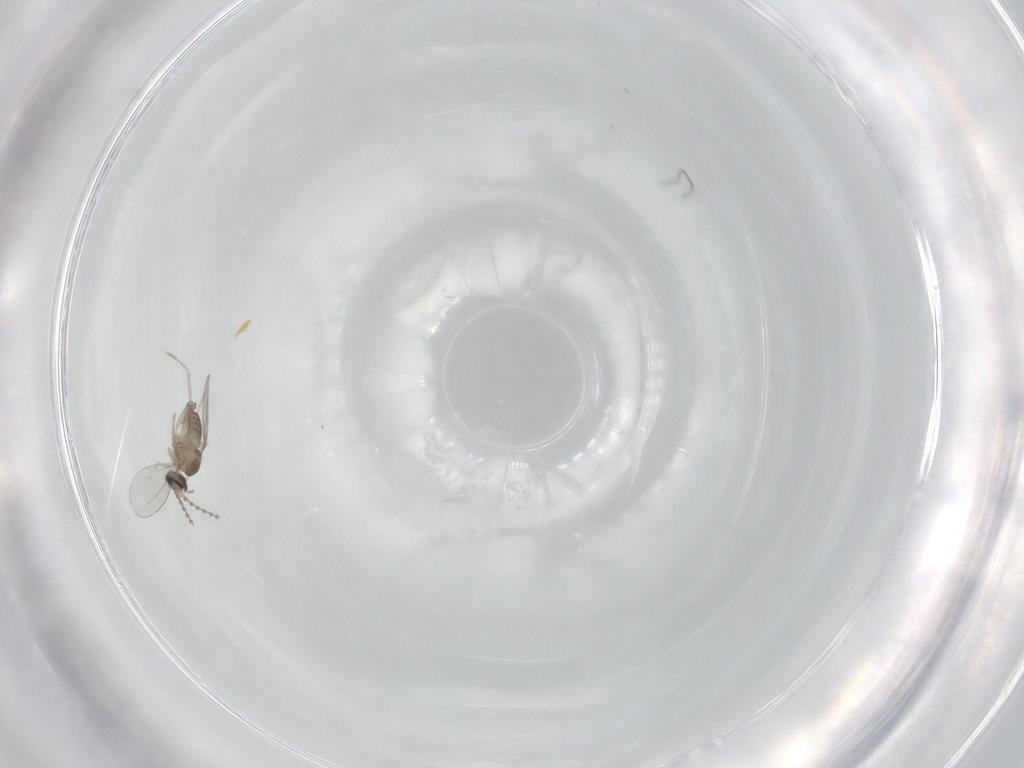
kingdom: Animalia
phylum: Arthropoda
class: Insecta
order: Diptera
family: Cecidomyiidae
